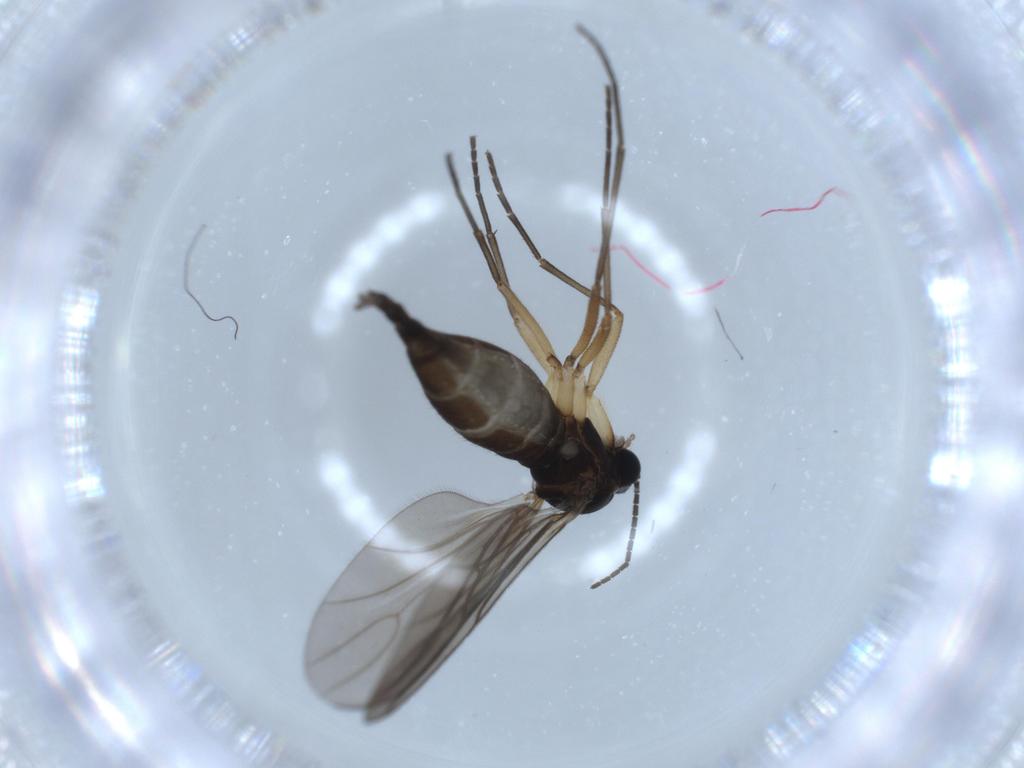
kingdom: Animalia
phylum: Arthropoda
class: Insecta
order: Diptera
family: Sciaridae
